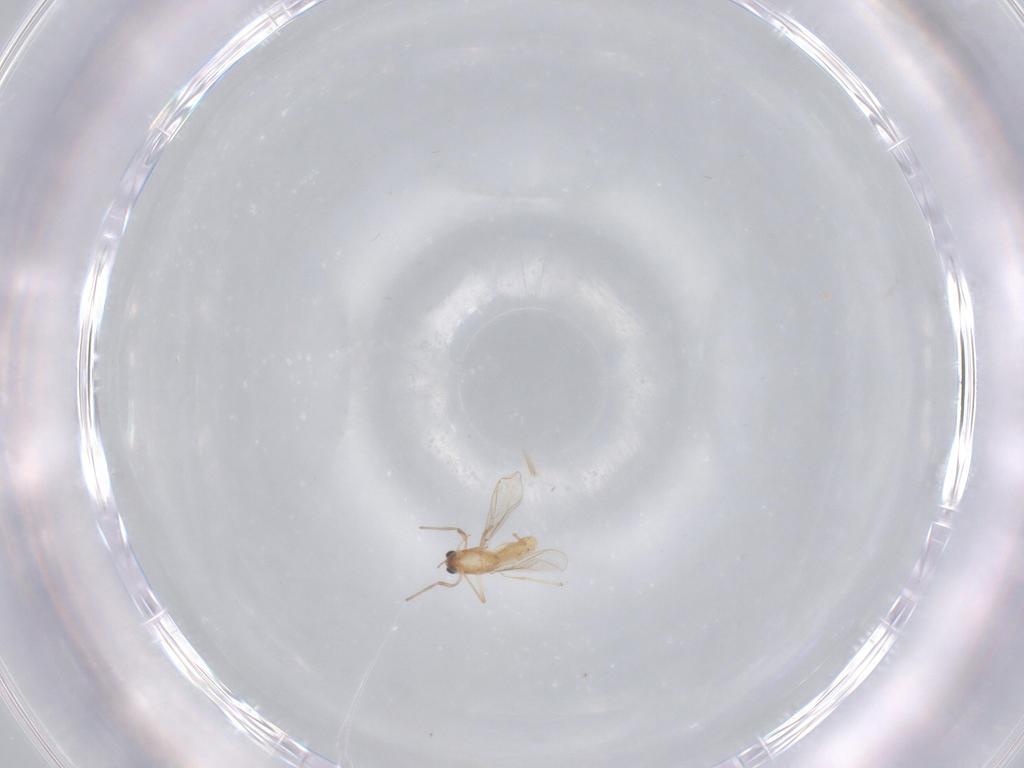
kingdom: Animalia
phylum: Arthropoda
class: Insecta
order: Diptera
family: Cecidomyiidae
